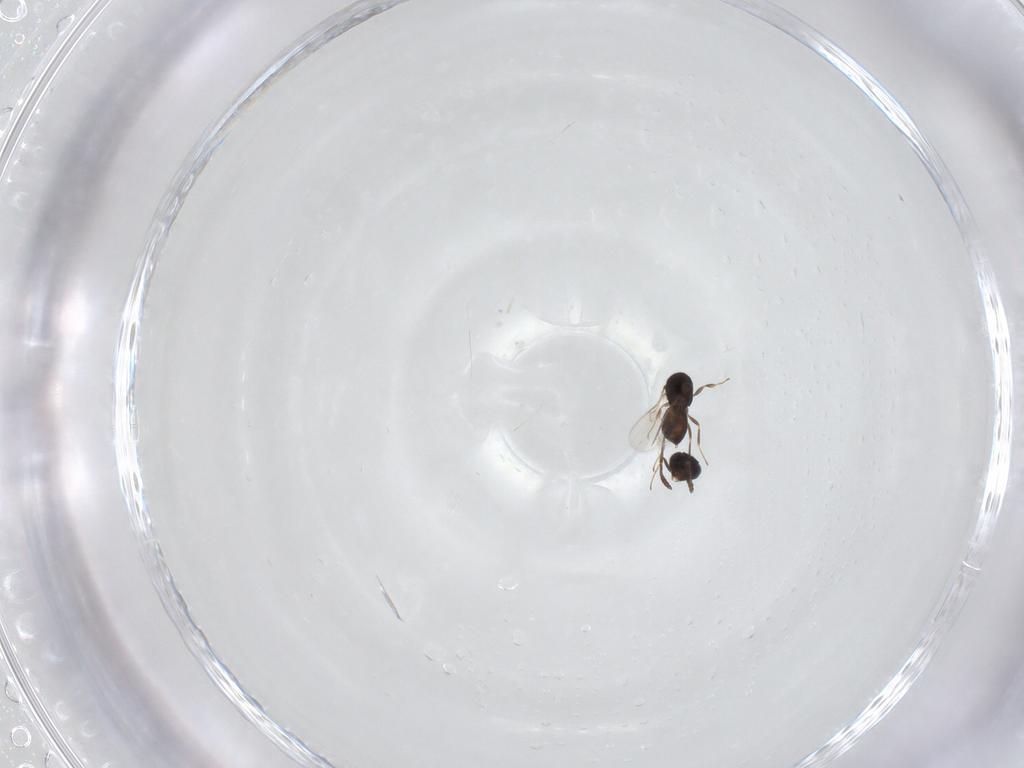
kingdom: Animalia
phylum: Arthropoda
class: Insecta
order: Hymenoptera
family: Scelionidae
